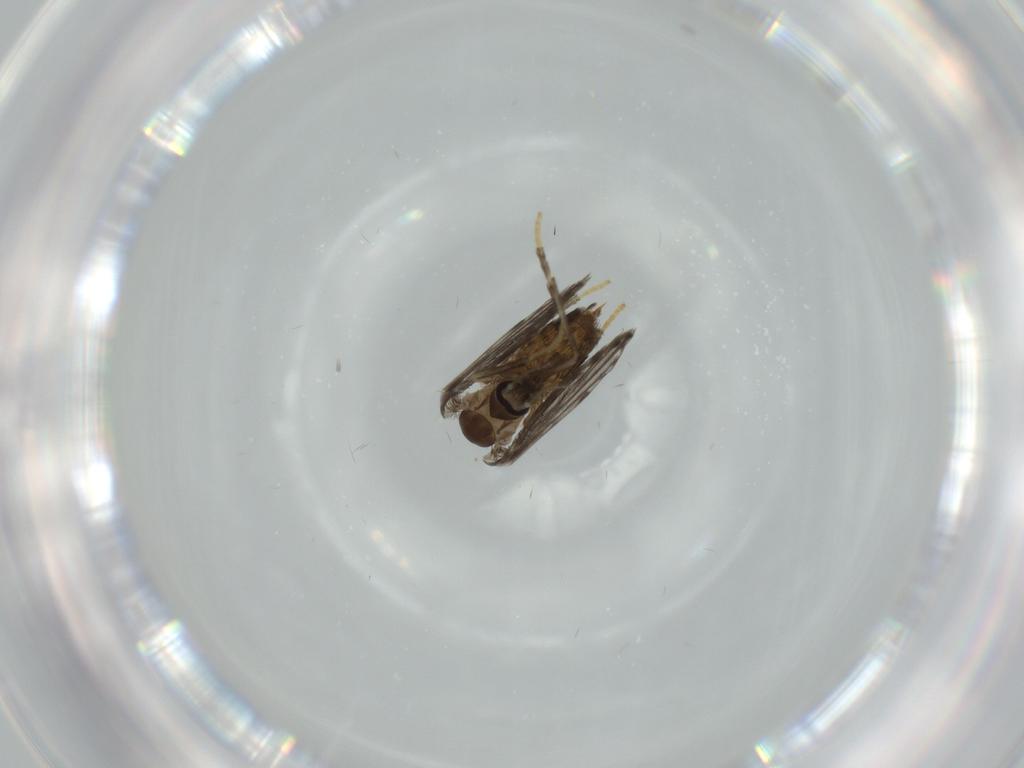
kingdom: Animalia
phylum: Arthropoda
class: Insecta
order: Diptera
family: Psychodidae
